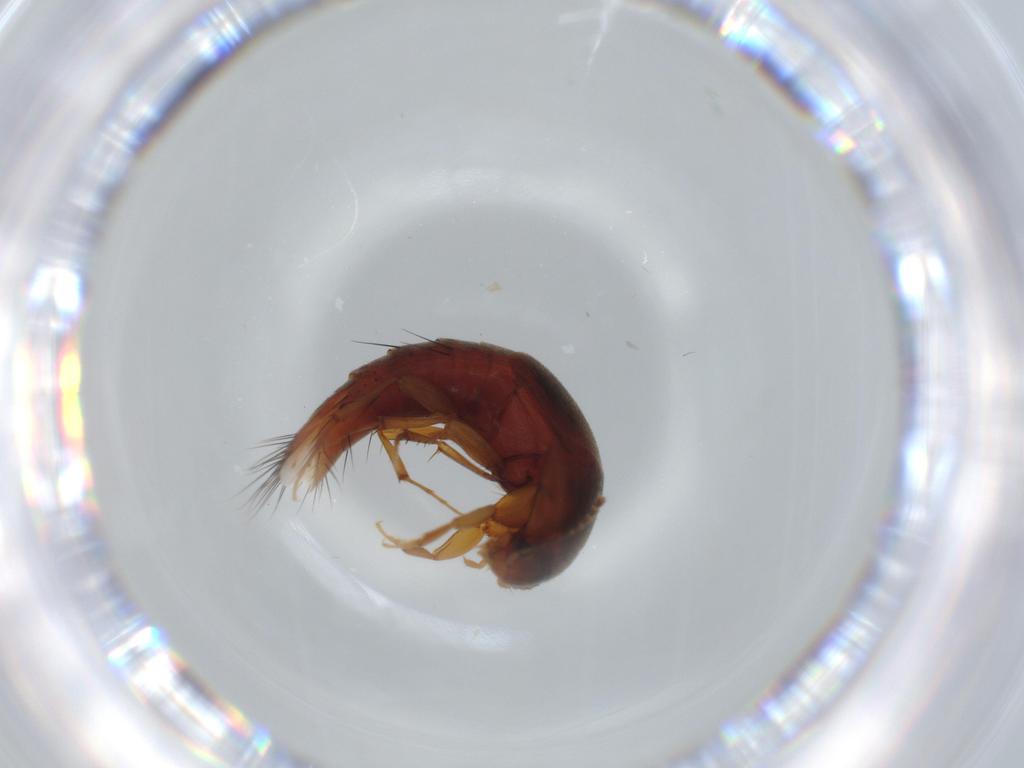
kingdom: Animalia
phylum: Arthropoda
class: Insecta
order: Coleoptera
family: Staphylinidae
